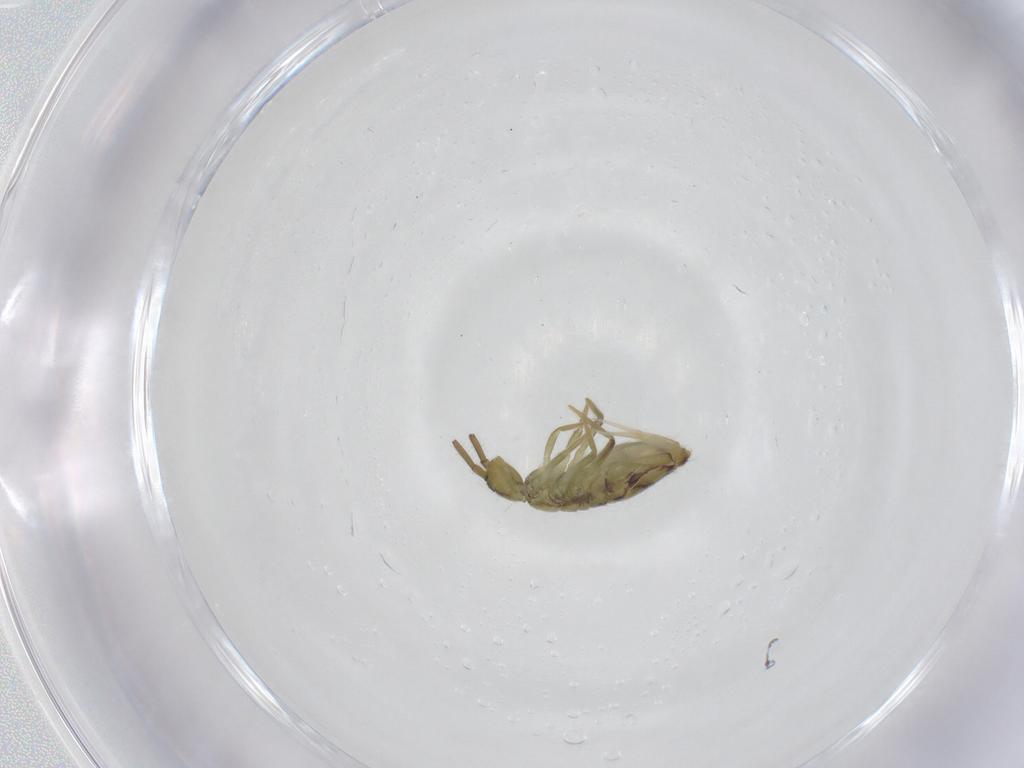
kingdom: Animalia
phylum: Arthropoda
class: Collembola
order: Entomobryomorpha
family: Entomobryidae
